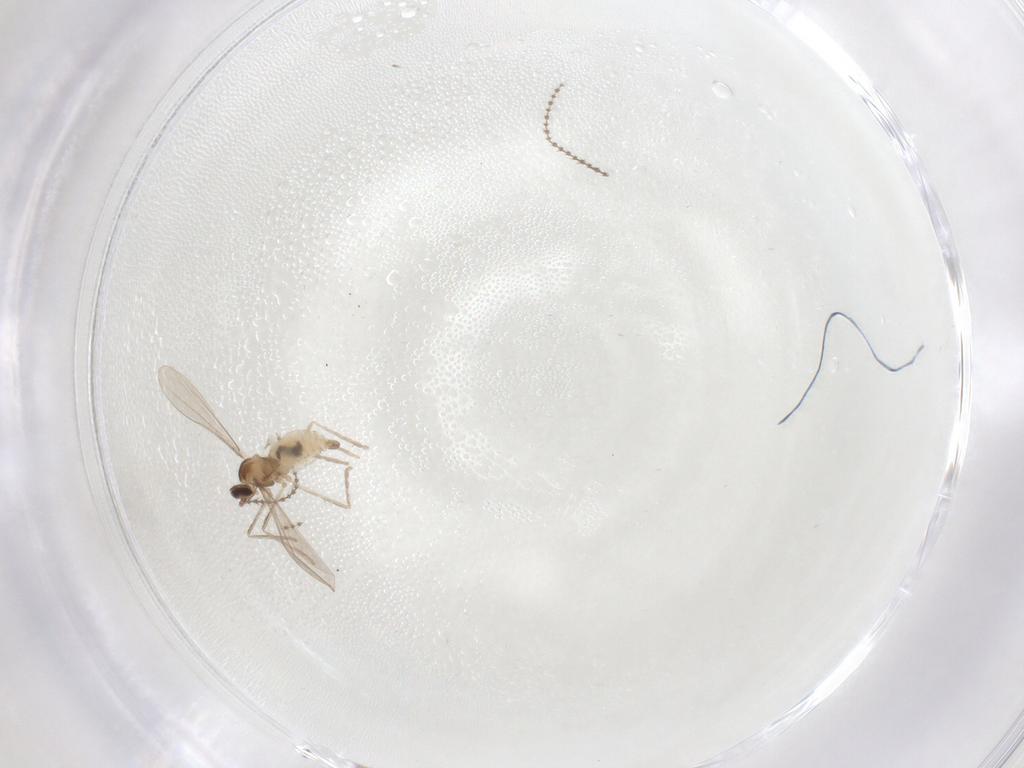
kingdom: Animalia
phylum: Arthropoda
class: Insecta
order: Diptera
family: Cecidomyiidae
